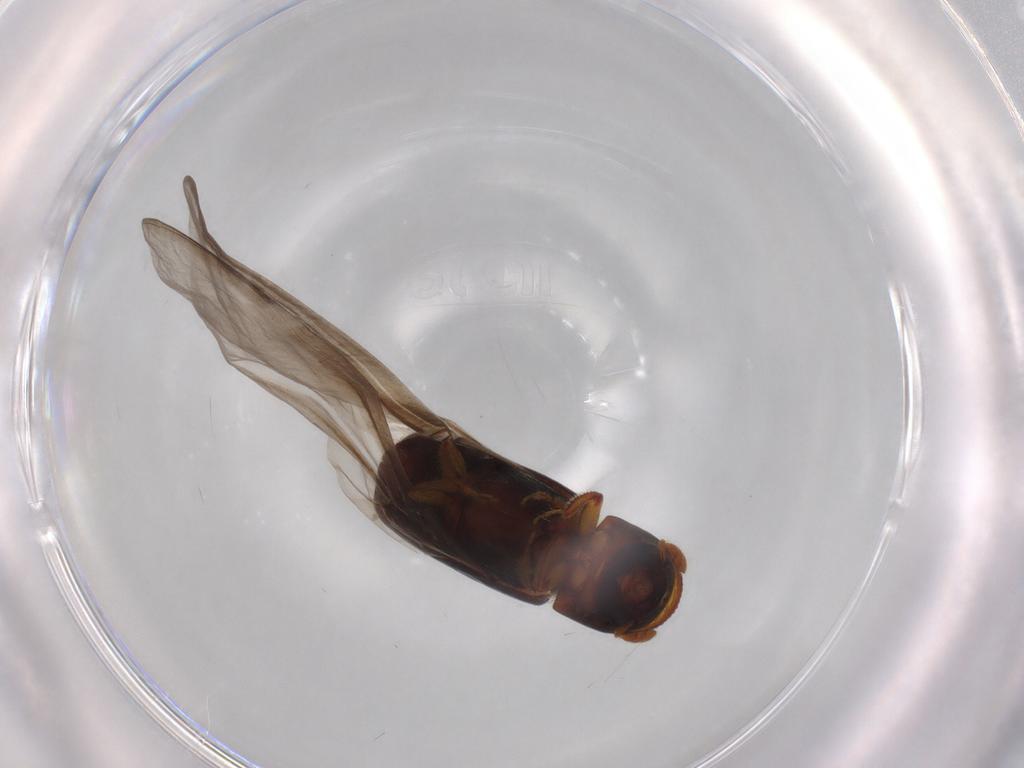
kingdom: Animalia
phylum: Arthropoda
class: Insecta
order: Coleoptera
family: Curculionidae
